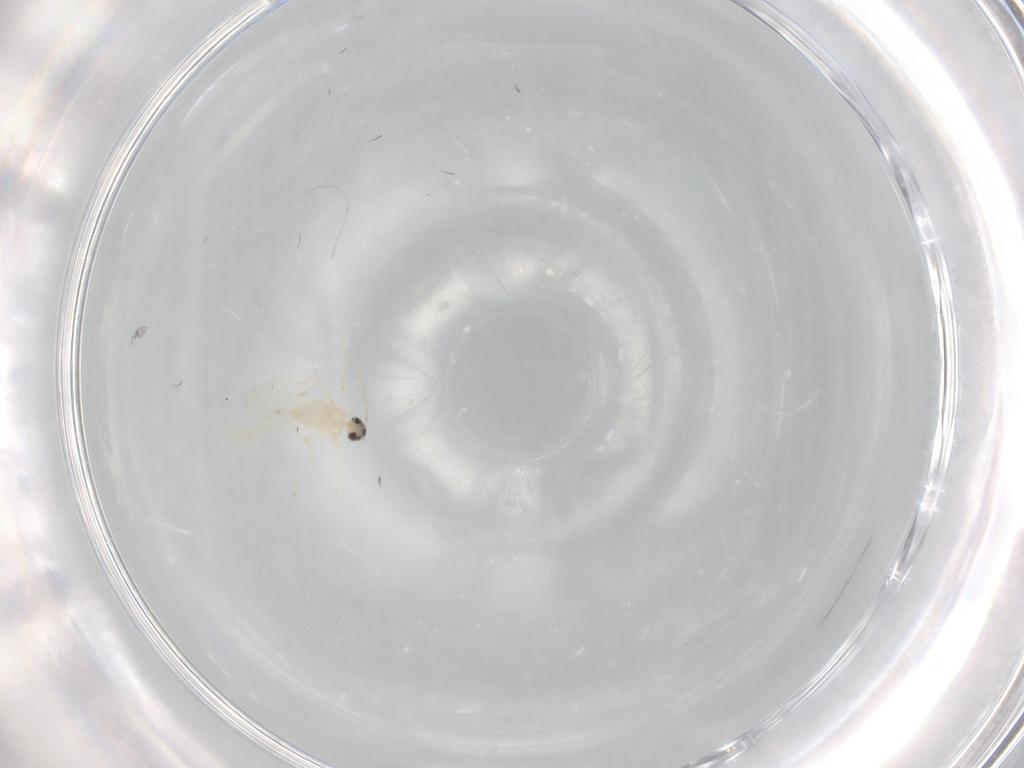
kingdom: Animalia
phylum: Arthropoda
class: Insecta
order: Diptera
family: Cecidomyiidae
